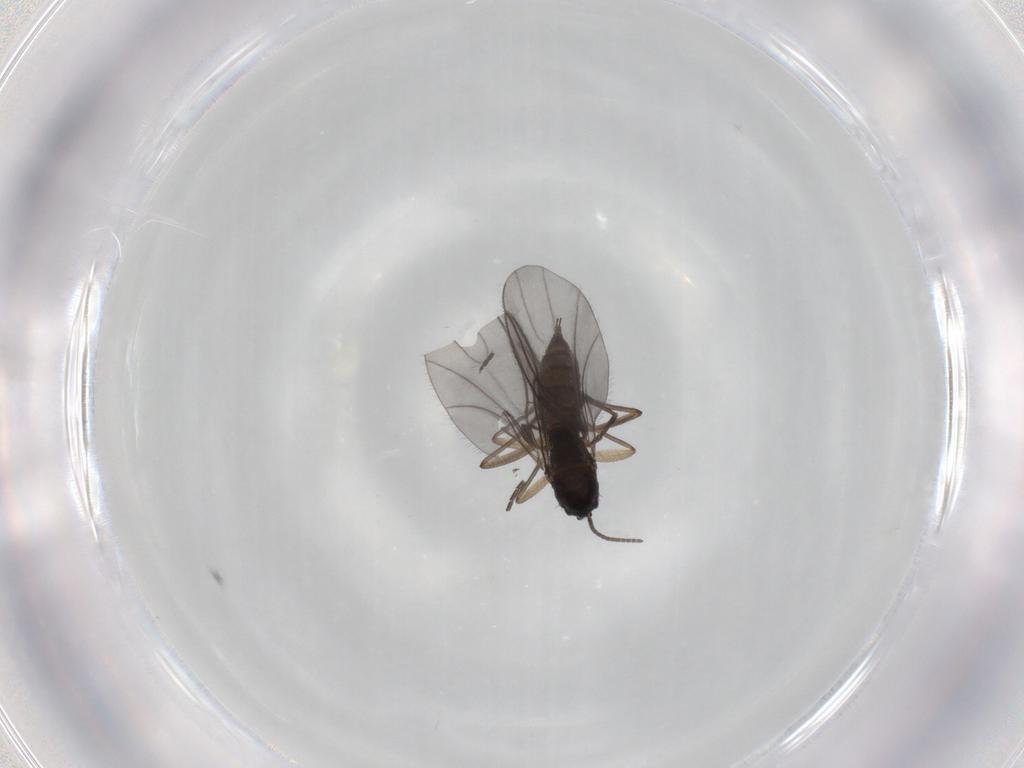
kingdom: Animalia
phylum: Arthropoda
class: Insecta
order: Diptera
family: Sciaridae
